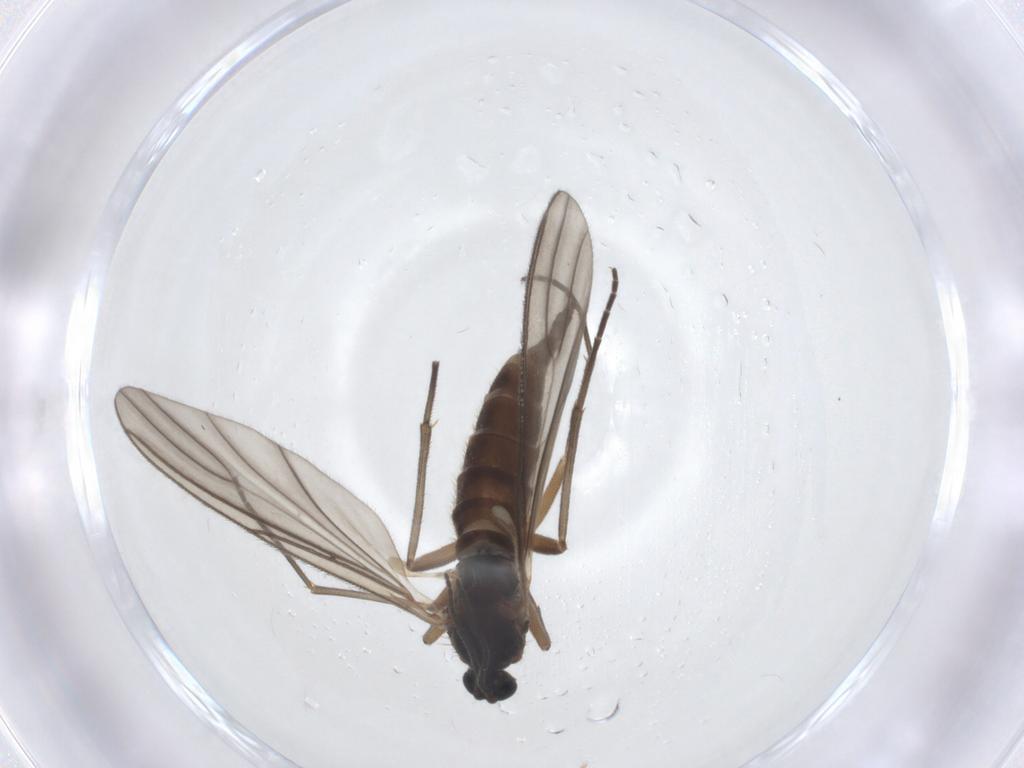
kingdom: Animalia
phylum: Arthropoda
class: Insecta
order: Diptera
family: Sciaridae
